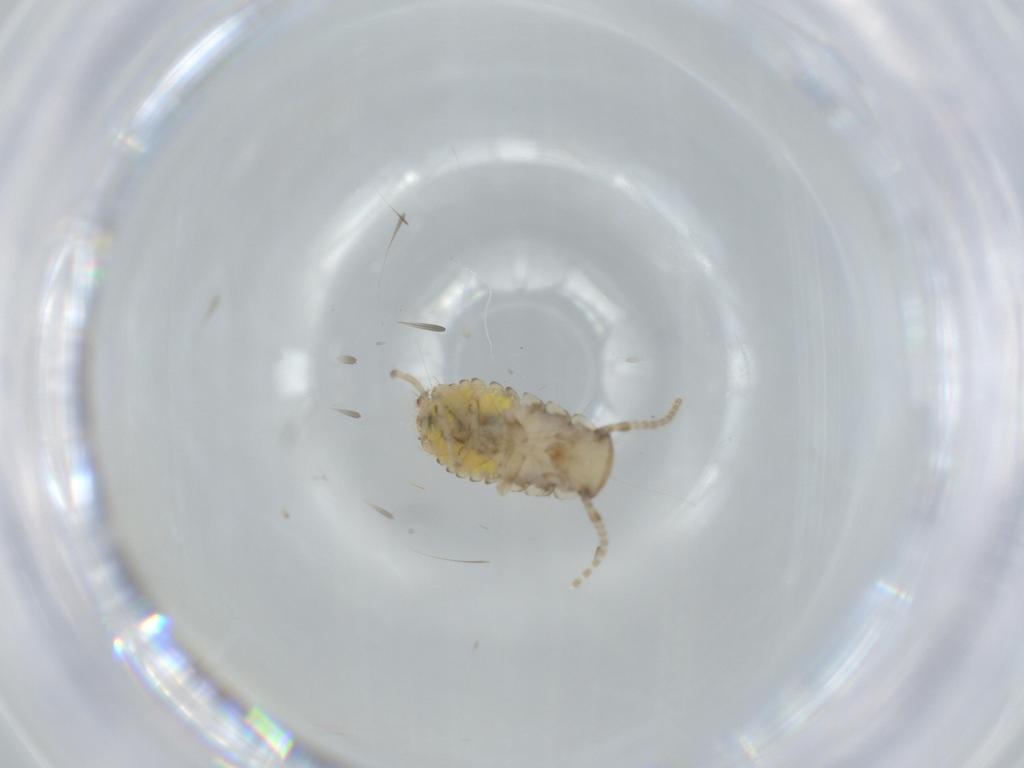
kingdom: Animalia
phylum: Arthropoda
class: Insecta
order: Blattodea
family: Ectobiidae
